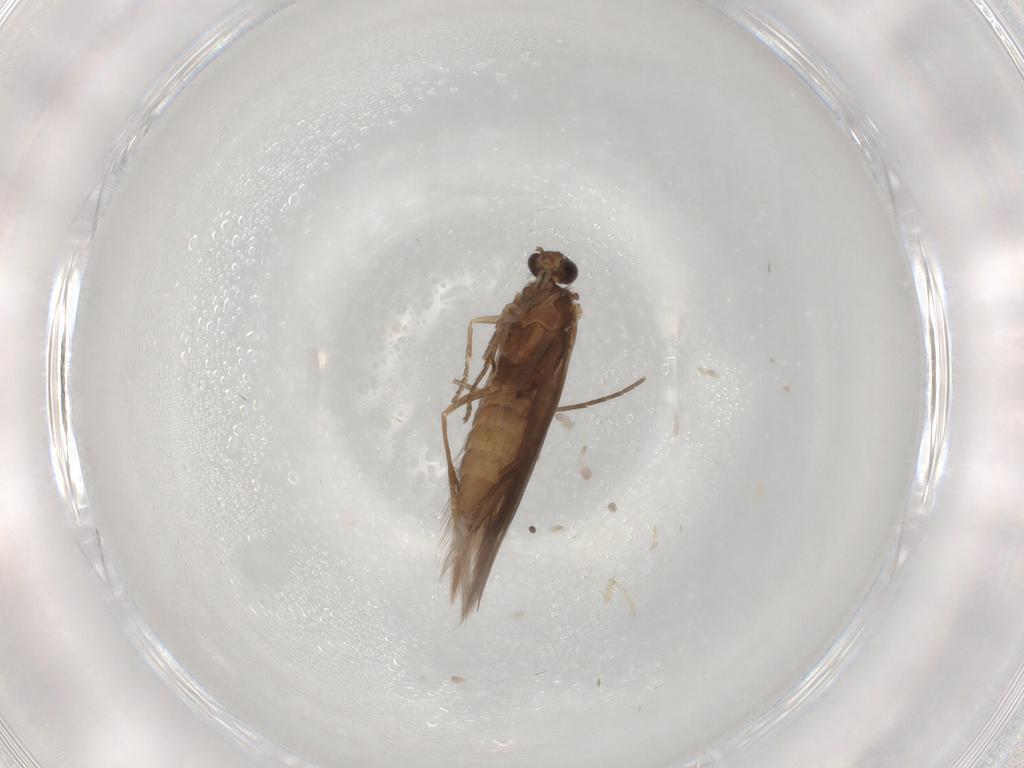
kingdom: Animalia
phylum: Arthropoda
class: Insecta
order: Trichoptera
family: Hydroptilidae
